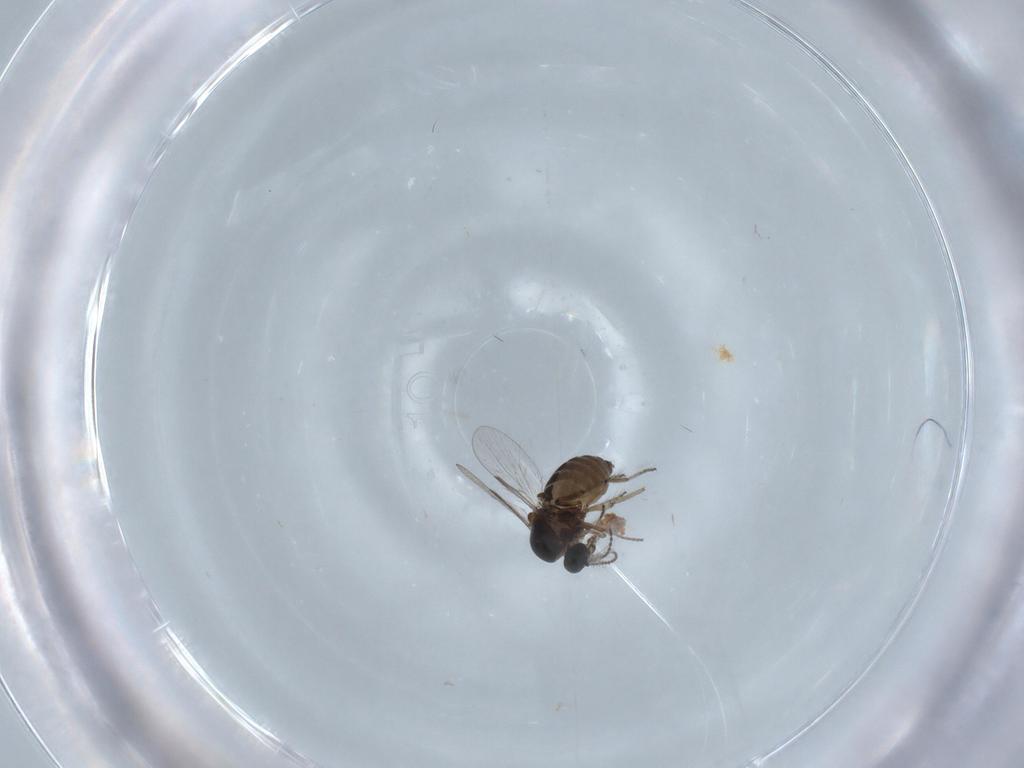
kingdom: Animalia
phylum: Arthropoda
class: Insecta
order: Diptera
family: Ceratopogonidae
